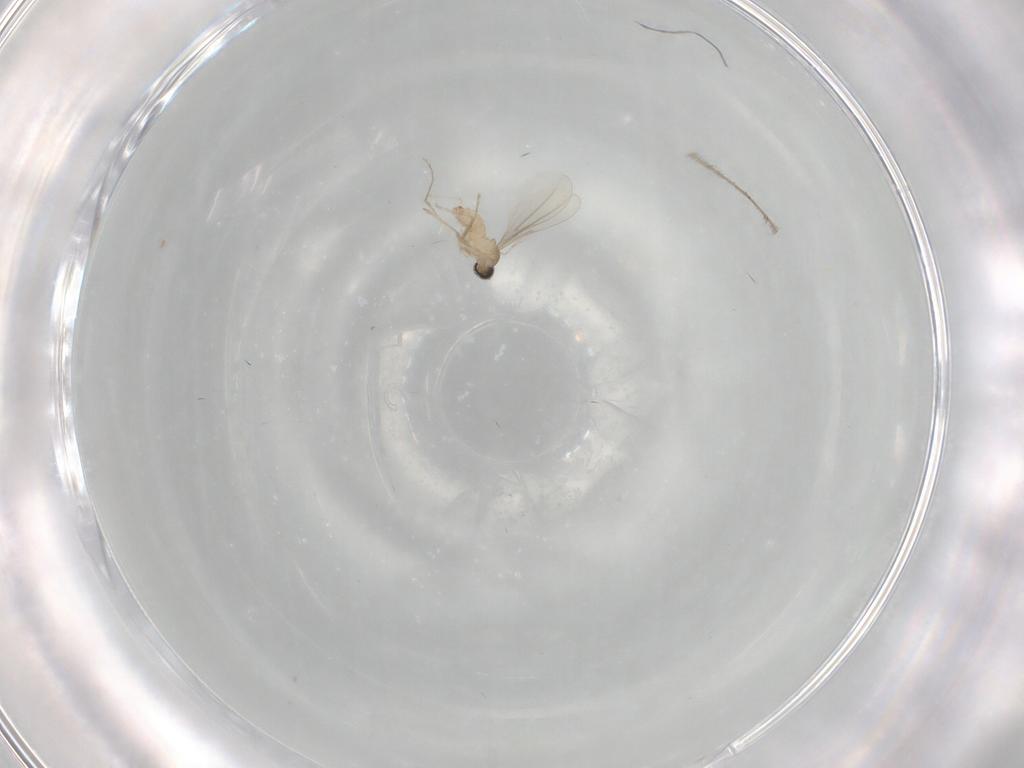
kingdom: Animalia
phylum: Arthropoda
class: Insecta
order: Diptera
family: Cecidomyiidae
